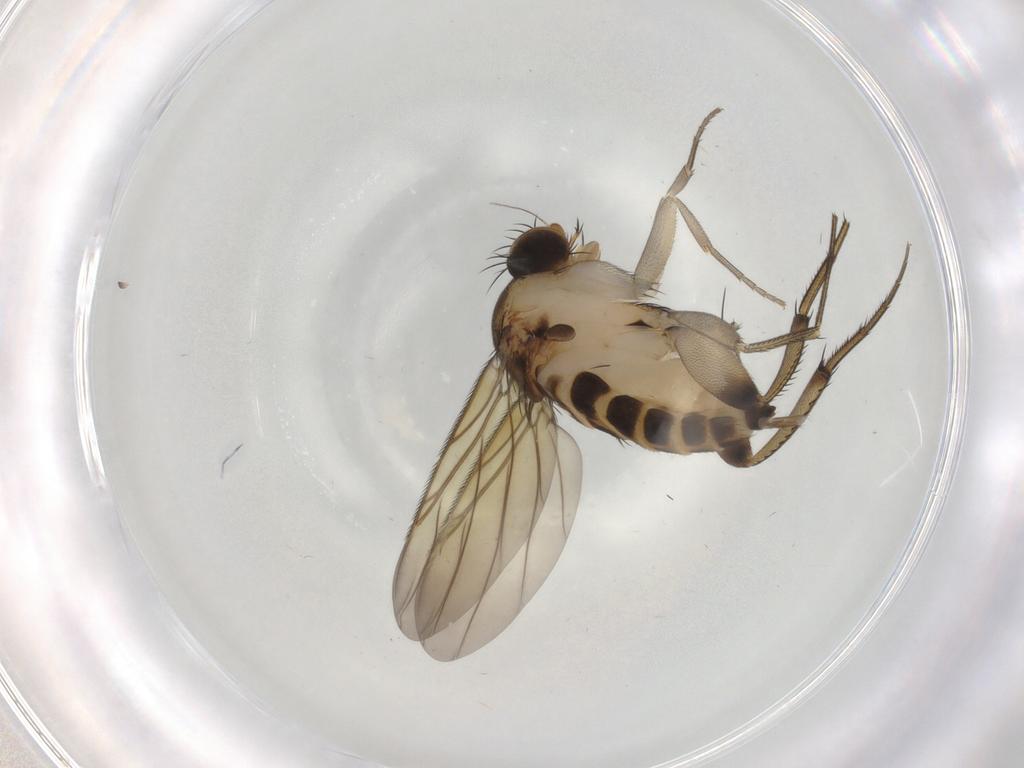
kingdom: Animalia
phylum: Arthropoda
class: Insecta
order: Diptera
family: Phoridae
